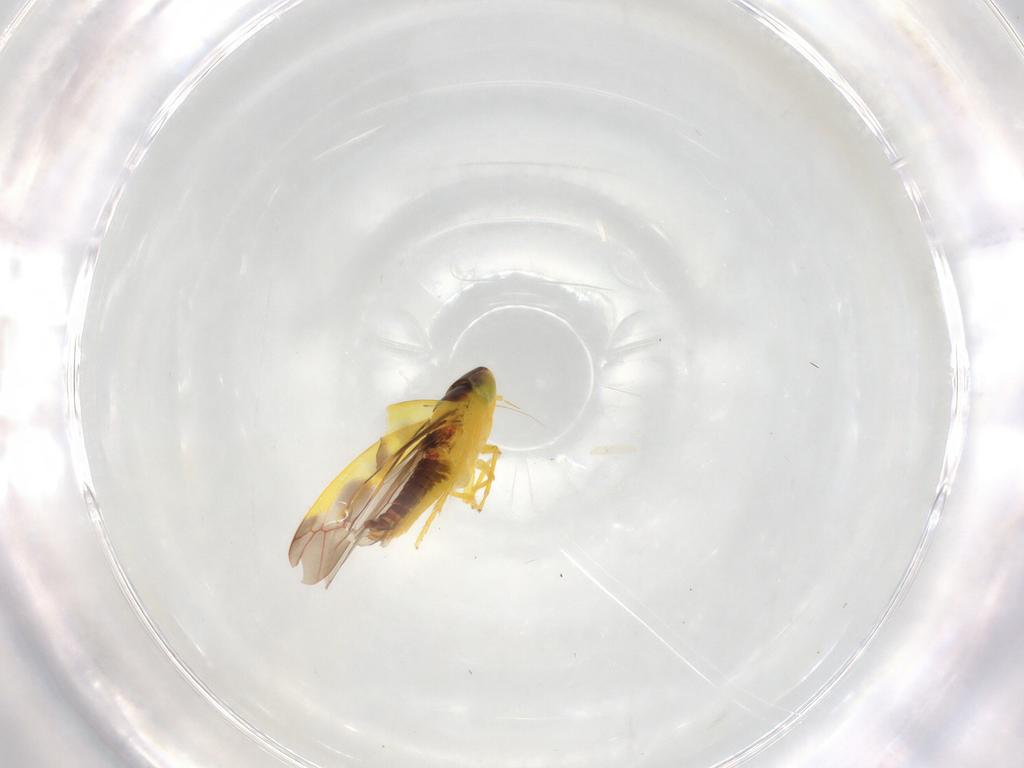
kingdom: Animalia
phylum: Arthropoda
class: Insecta
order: Hemiptera
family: Cicadellidae
